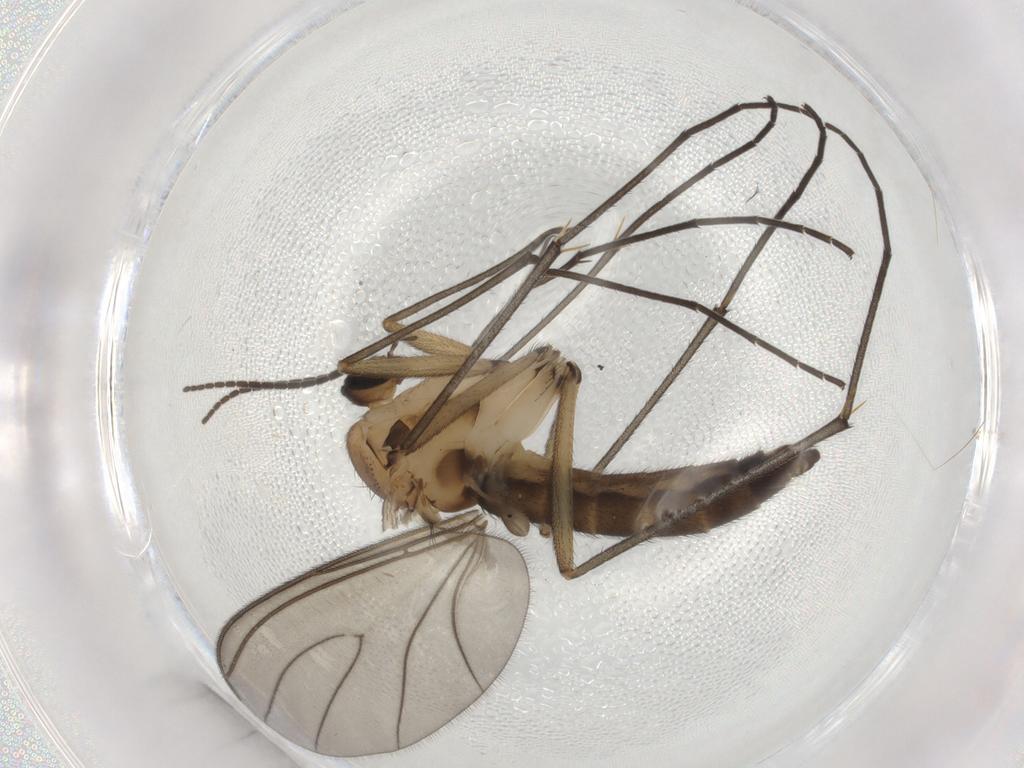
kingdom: Animalia
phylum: Arthropoda
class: Insecta
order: Diptera
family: Sciaridae
